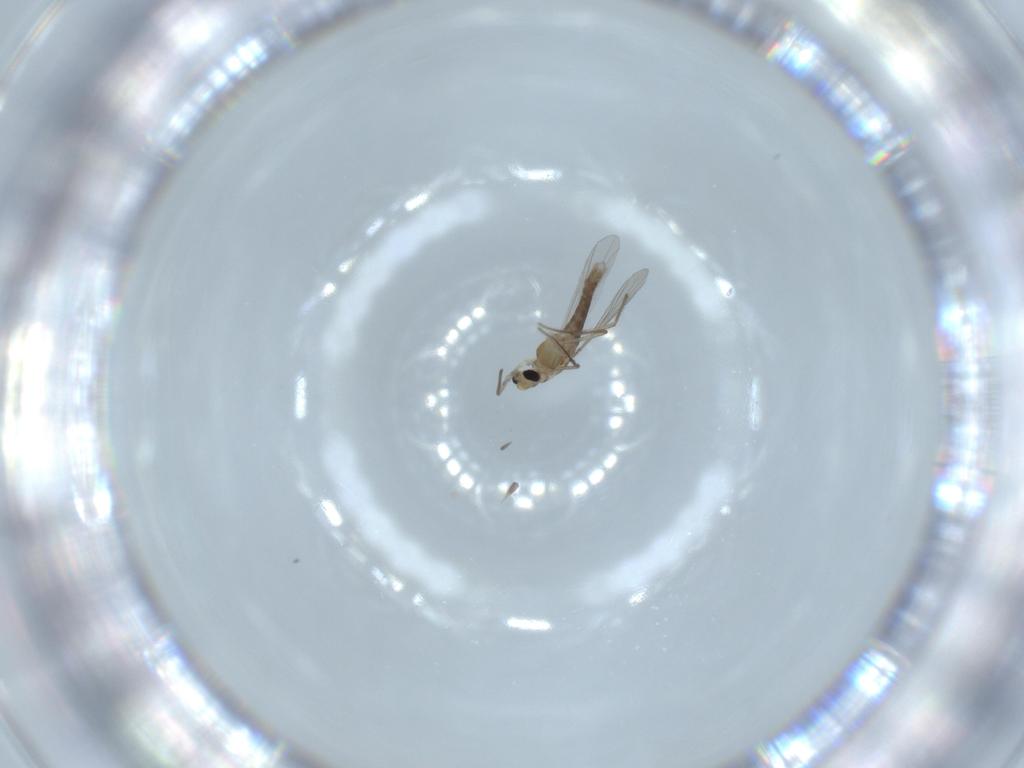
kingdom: Animalia
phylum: Arthropoda
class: Insecta
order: Diptera
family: Chironomidae
